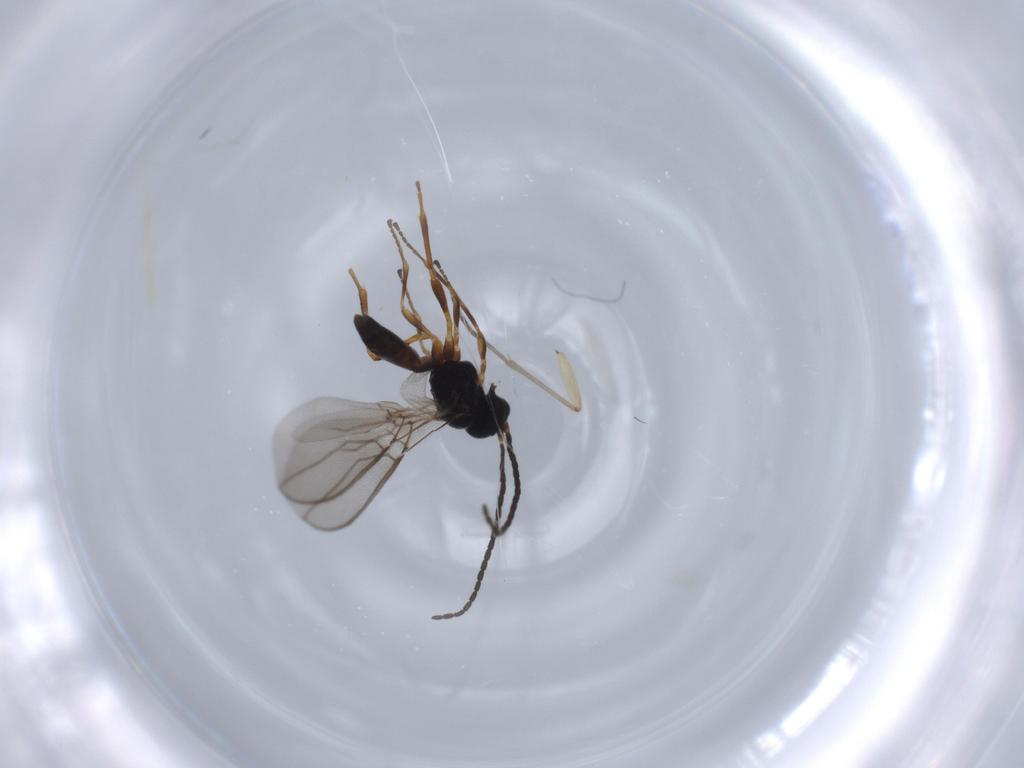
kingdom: Animalia
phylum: Arthropoda
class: Insecta
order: Hymenoptera
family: Braconidae
